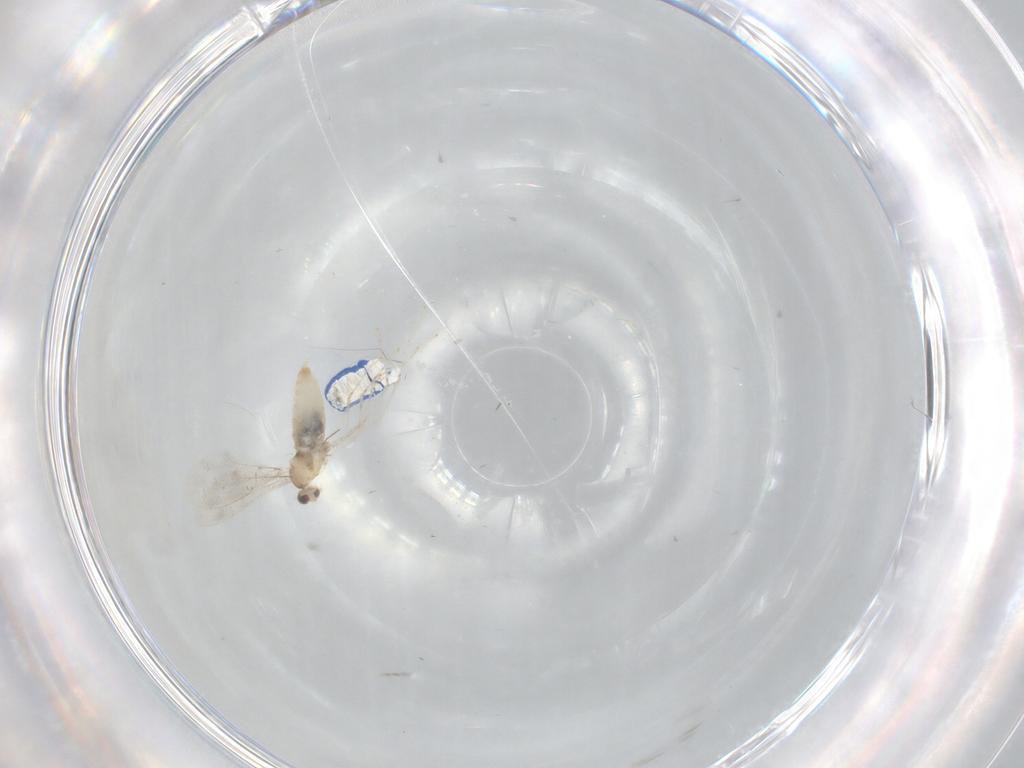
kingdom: Animalia
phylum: Arthropoda
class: Insecta
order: Diptera
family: Cecidomyiidae
